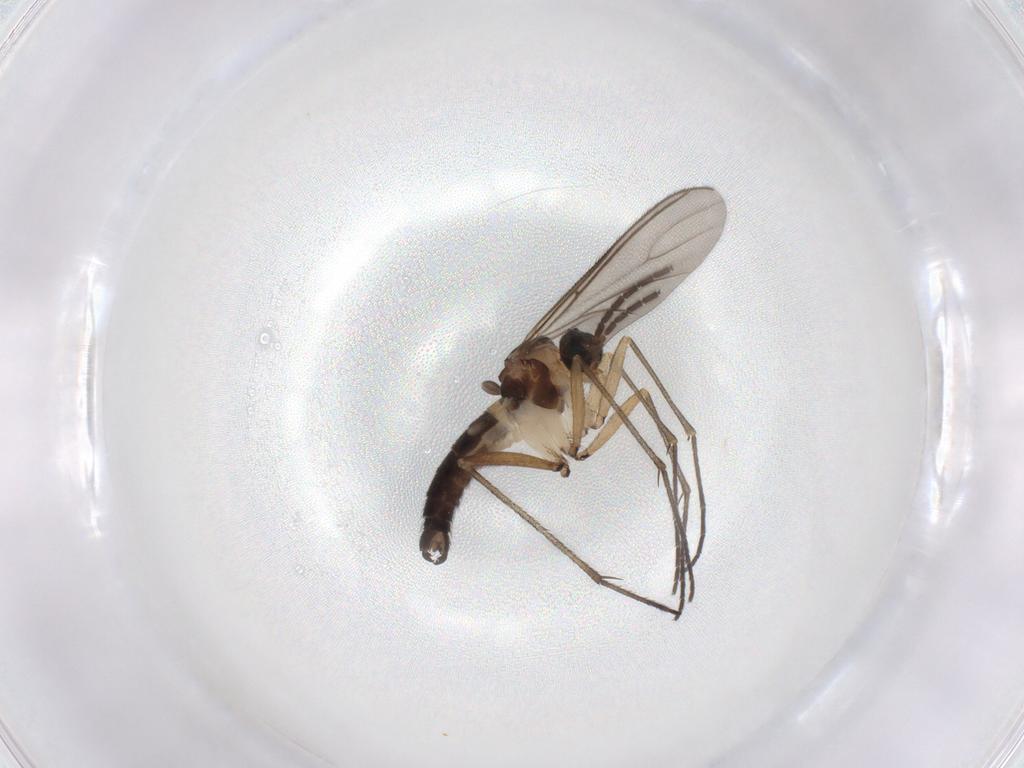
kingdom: Animalia
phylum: Arthropoda
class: Insecta
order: Diptera
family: Sciaridae
